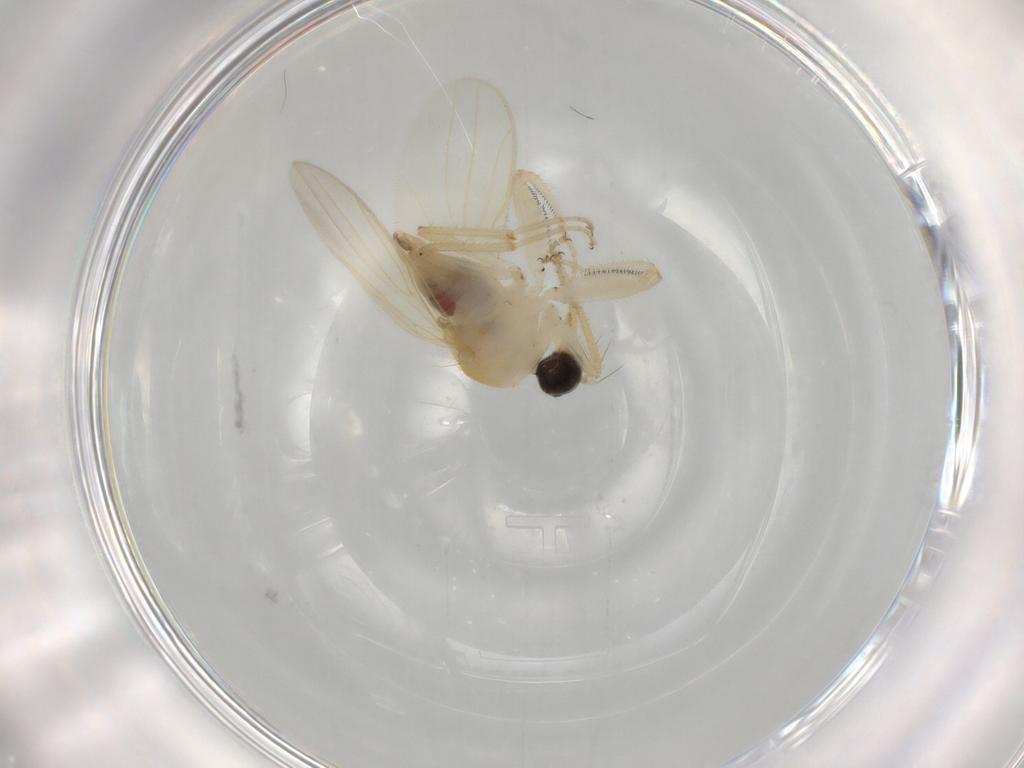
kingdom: Animalia
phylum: Arthropoda
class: Insecta
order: Diptera
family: Hybotidae
